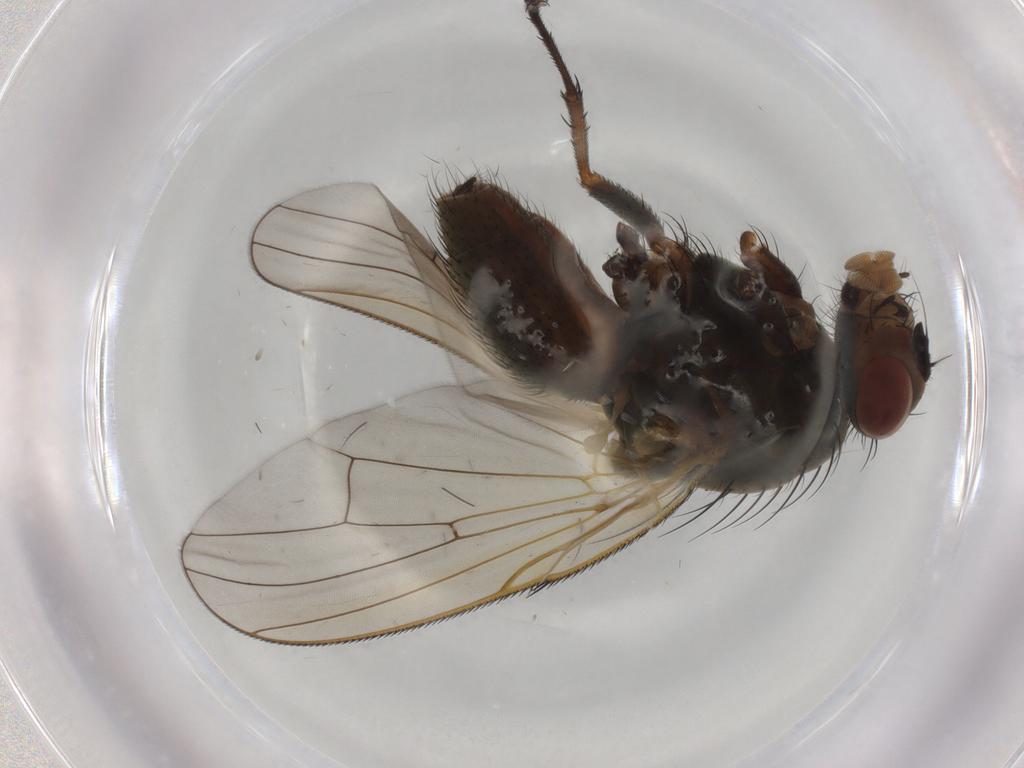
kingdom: Animalia
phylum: Arthropoda
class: Insecta
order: Diptera
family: Anthomyiidae
